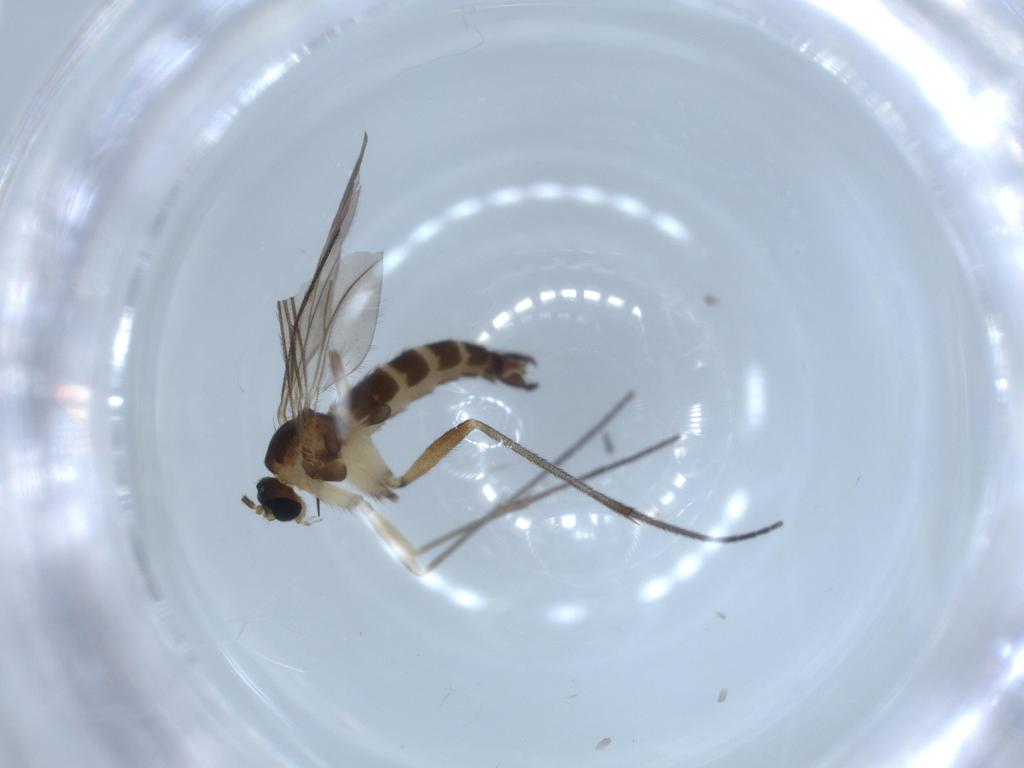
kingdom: Animalia
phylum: Arthropoda
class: Insecta
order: Diptera
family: Sciaridae
